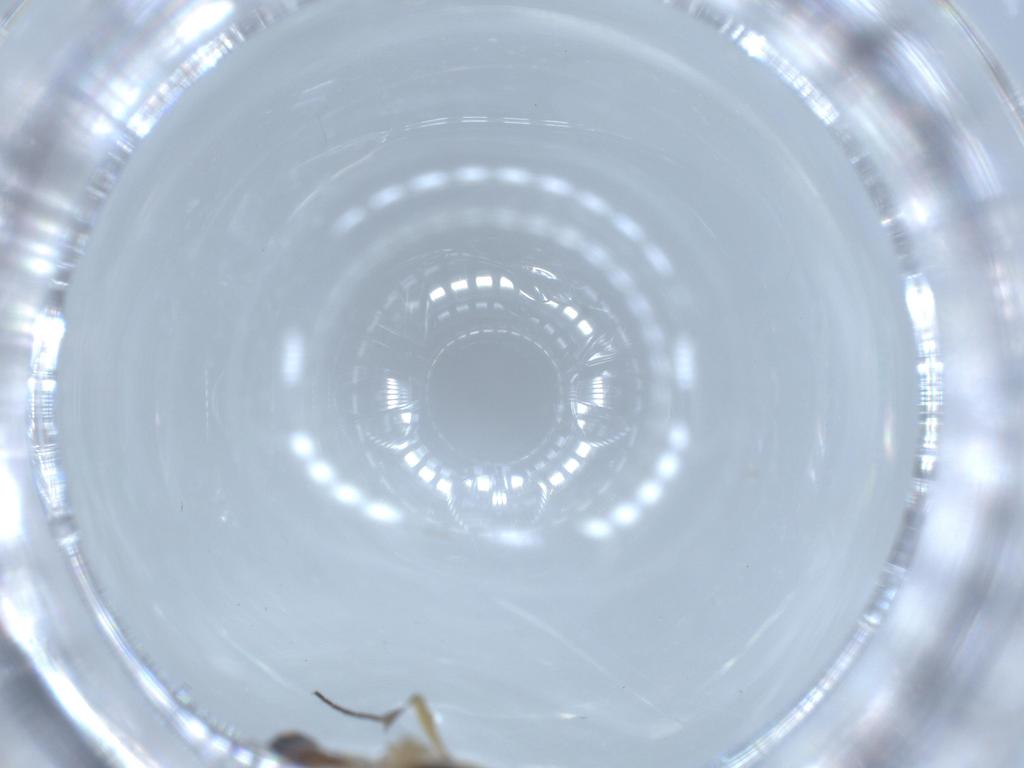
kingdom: Animalia
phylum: Arthropoda
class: Insecta
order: Diptera
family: Phoridae
